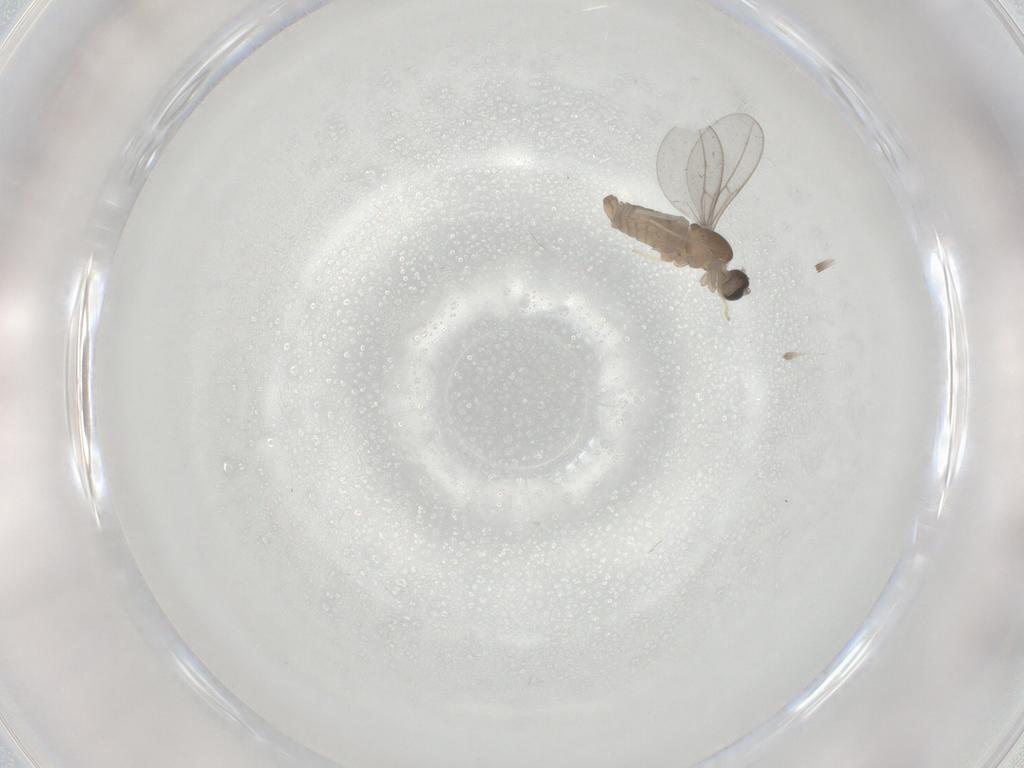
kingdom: Animalia
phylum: Arthropoda
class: Insecta
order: Diptera
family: Cecidomyiidae
